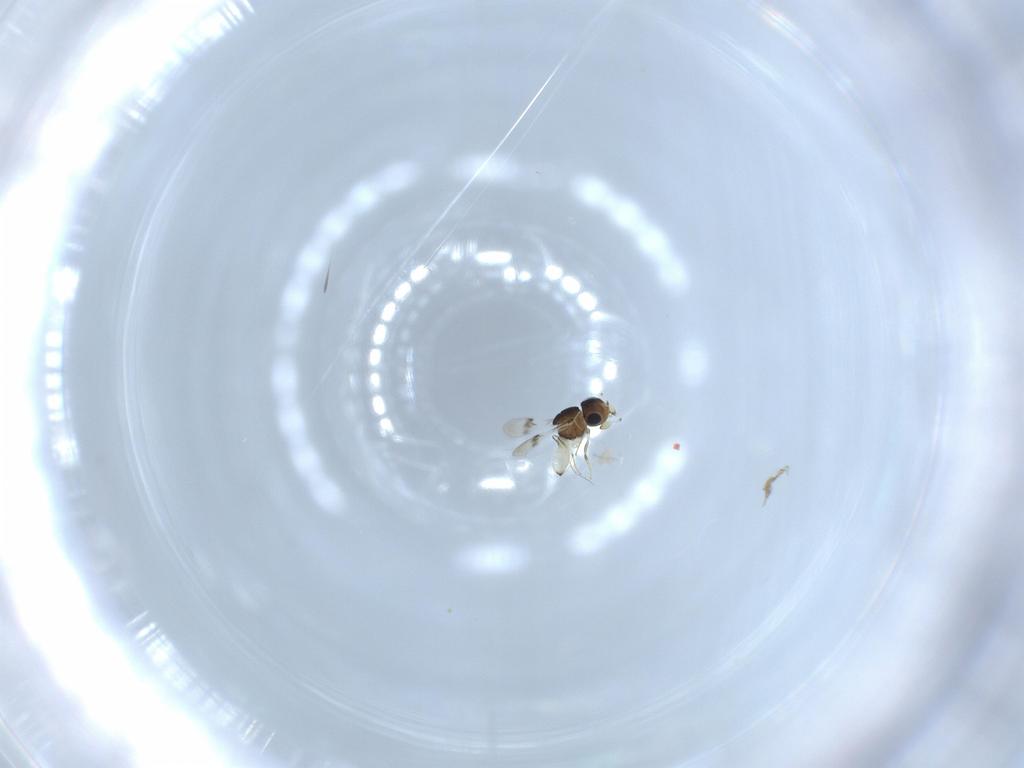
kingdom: Animalia
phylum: Arthropoda
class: Insecta
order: Hymenoptera
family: Scelionidae
